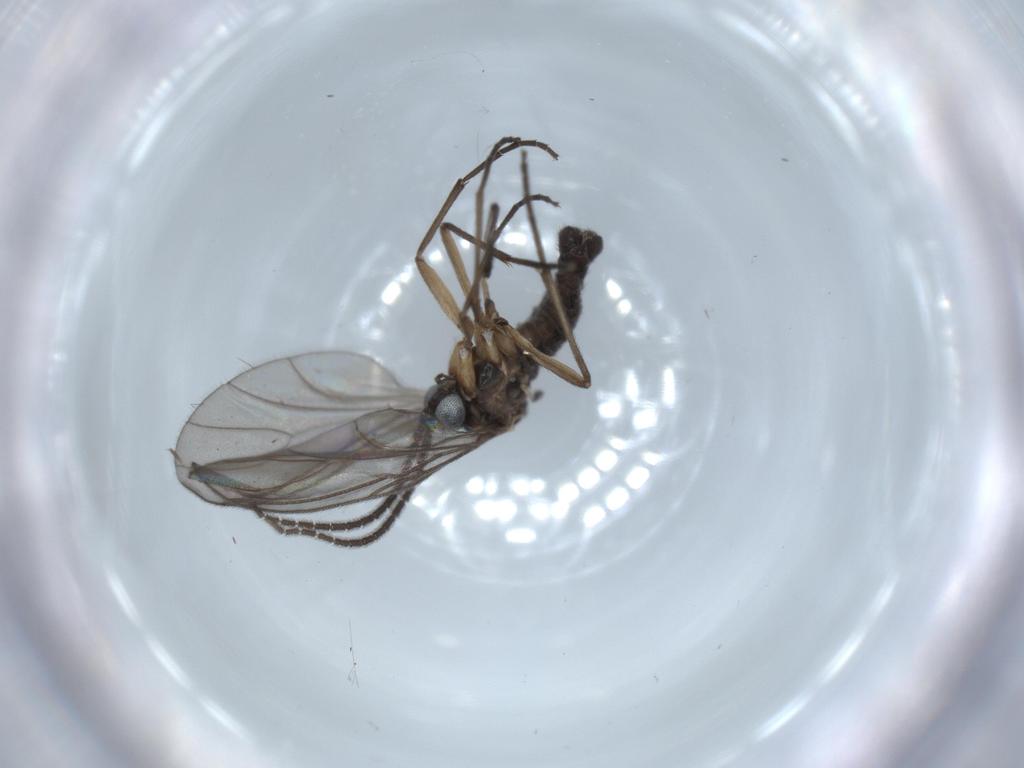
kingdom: Animalia
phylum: Arthropoda
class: Insecta
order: Diptera
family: Sciaridae
